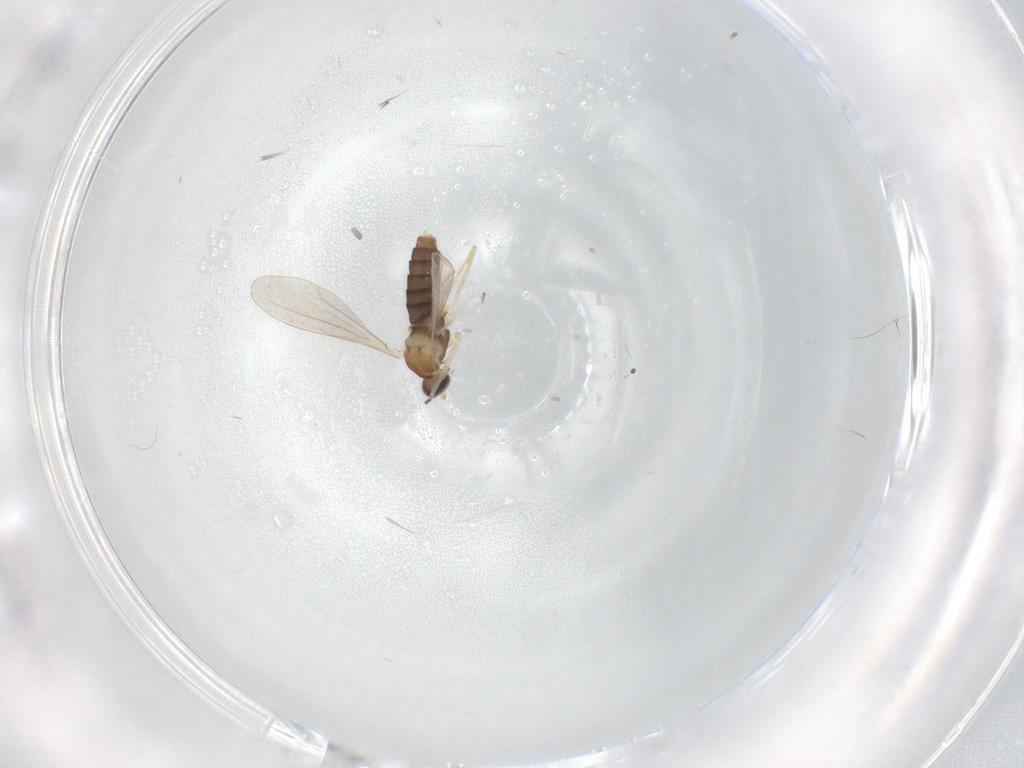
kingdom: Animalia
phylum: Arthropoda
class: Insecta
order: Diptera
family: Cecidomyiidae
